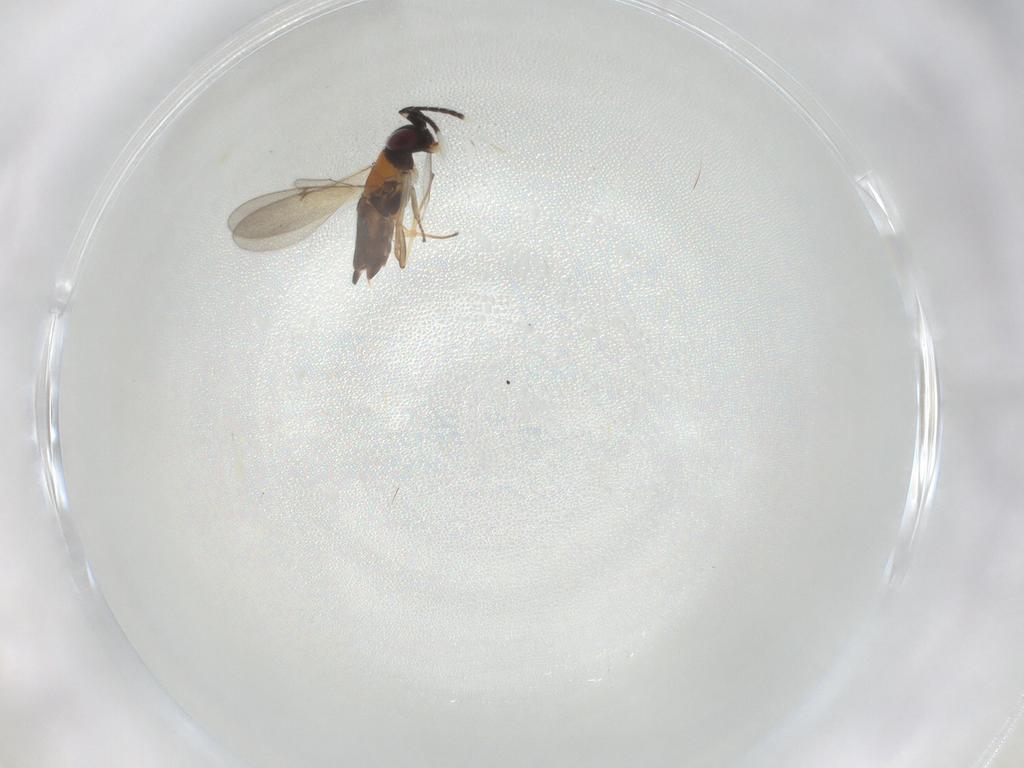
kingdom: Animalia
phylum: Arthropoda
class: Insecta
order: Hymenoptera
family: Encyrtidae
